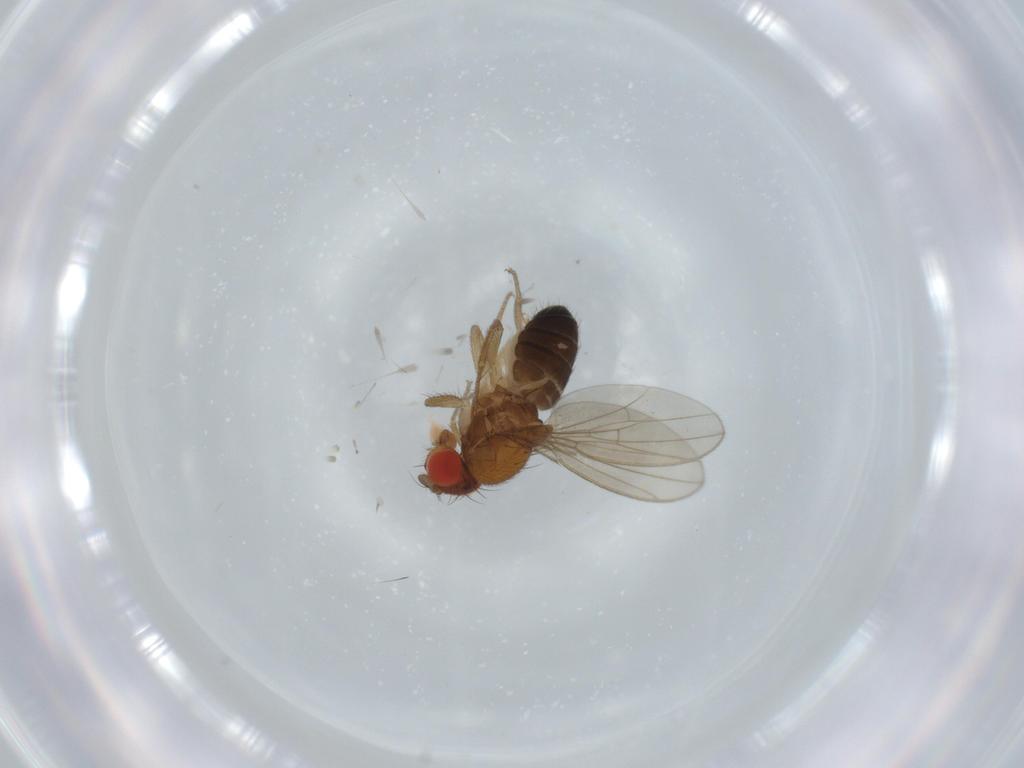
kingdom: Animalia
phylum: Arthropoda
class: Insecta
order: Diptera
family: Drosophilidae
